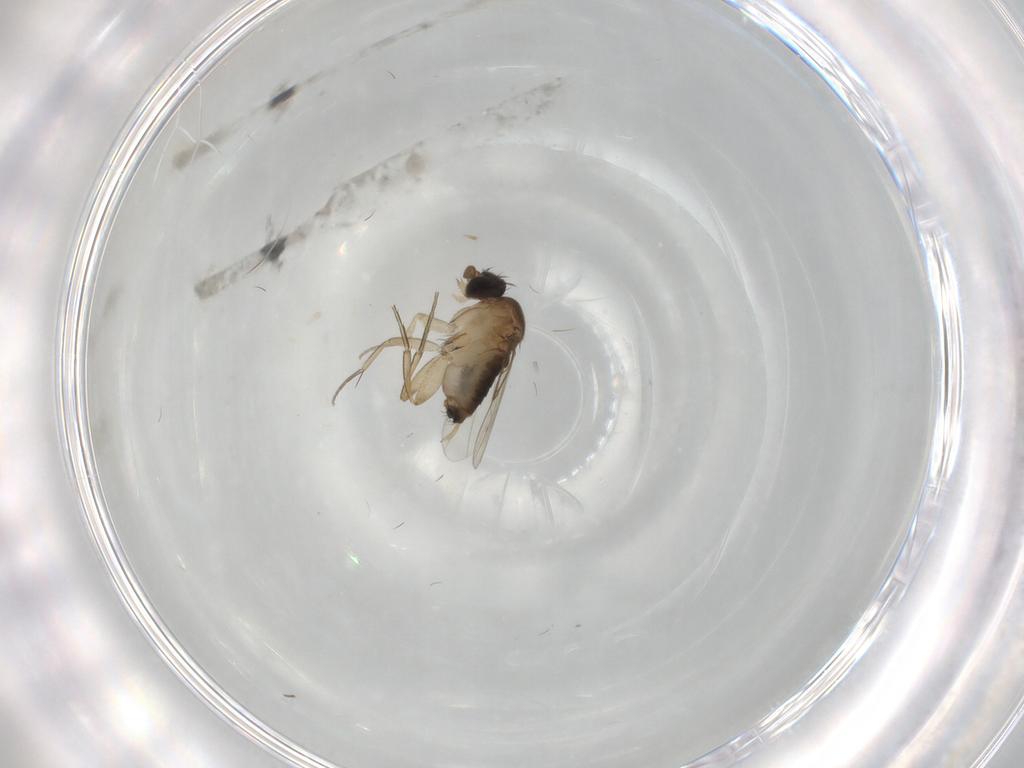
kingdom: Animalia
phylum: Arthropoda
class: Insecta
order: Diptera
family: Phoridae
